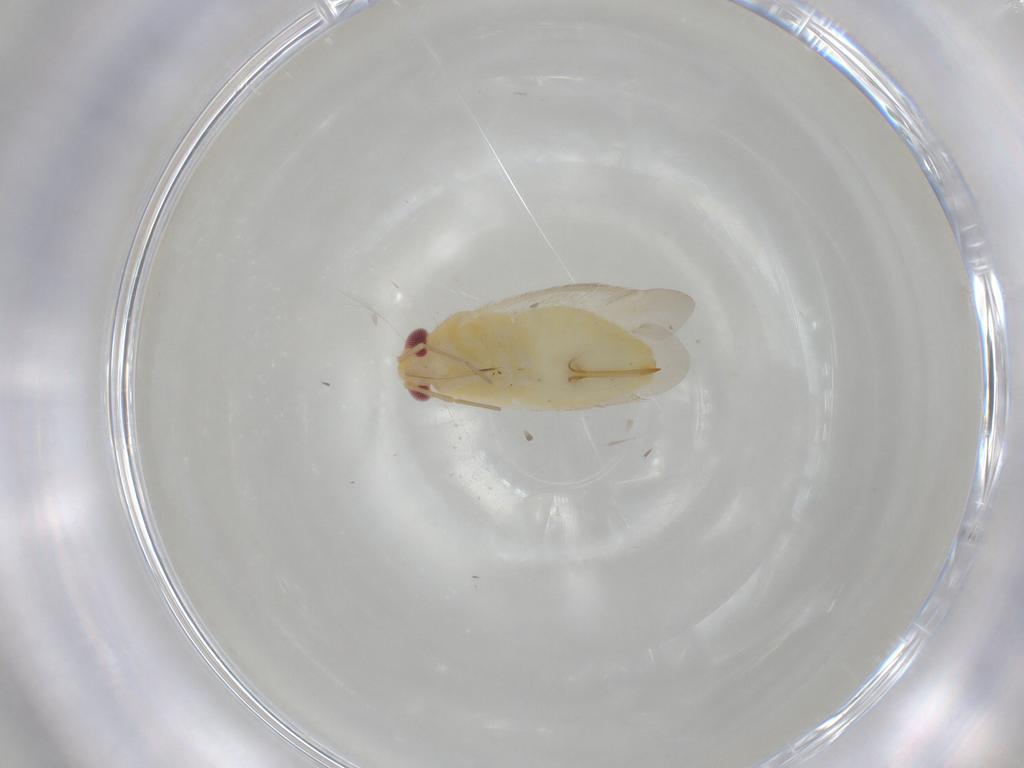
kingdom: Animalia
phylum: Arthropoda
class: Insecta
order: Hemiptera
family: Miridae
